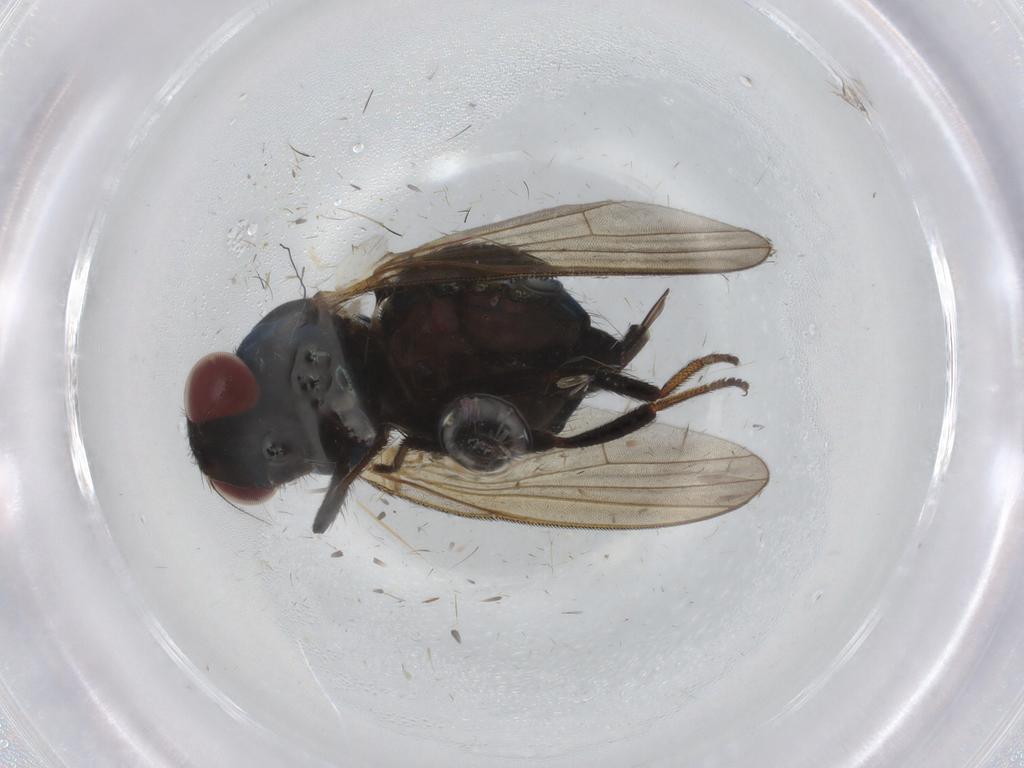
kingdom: Animalia
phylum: Arthropoda
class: Insecta
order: Diptera
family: Lonchaeidae
